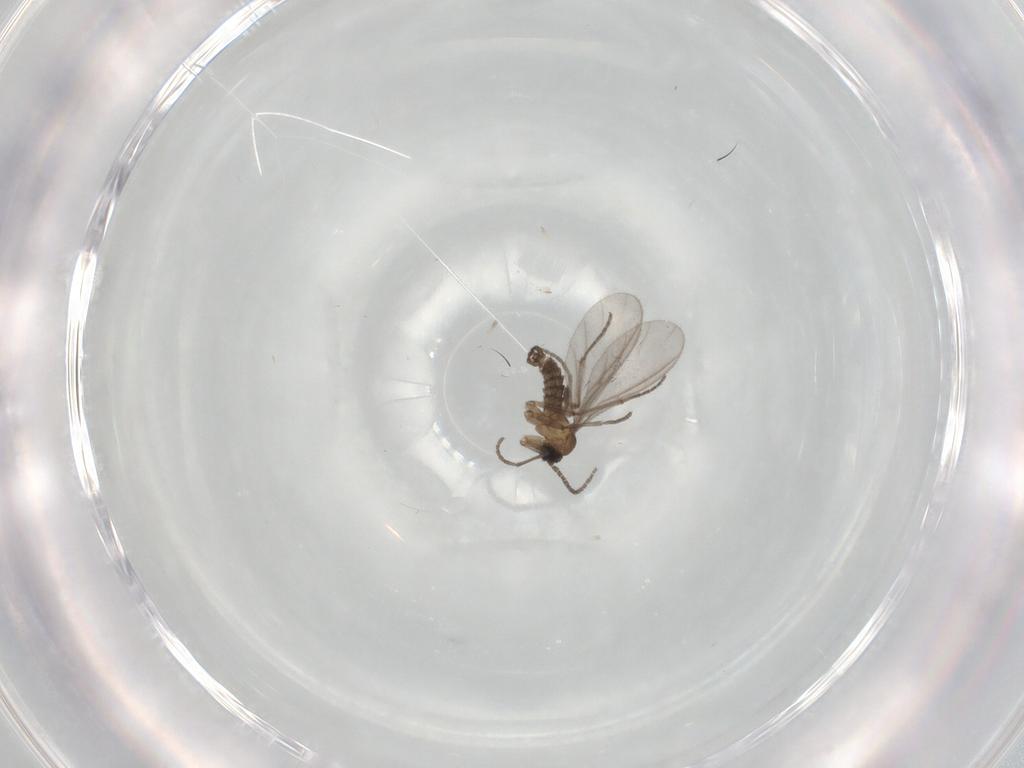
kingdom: Animalia
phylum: Arthropoda
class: Insecta
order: Diptera
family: Sciaridae
